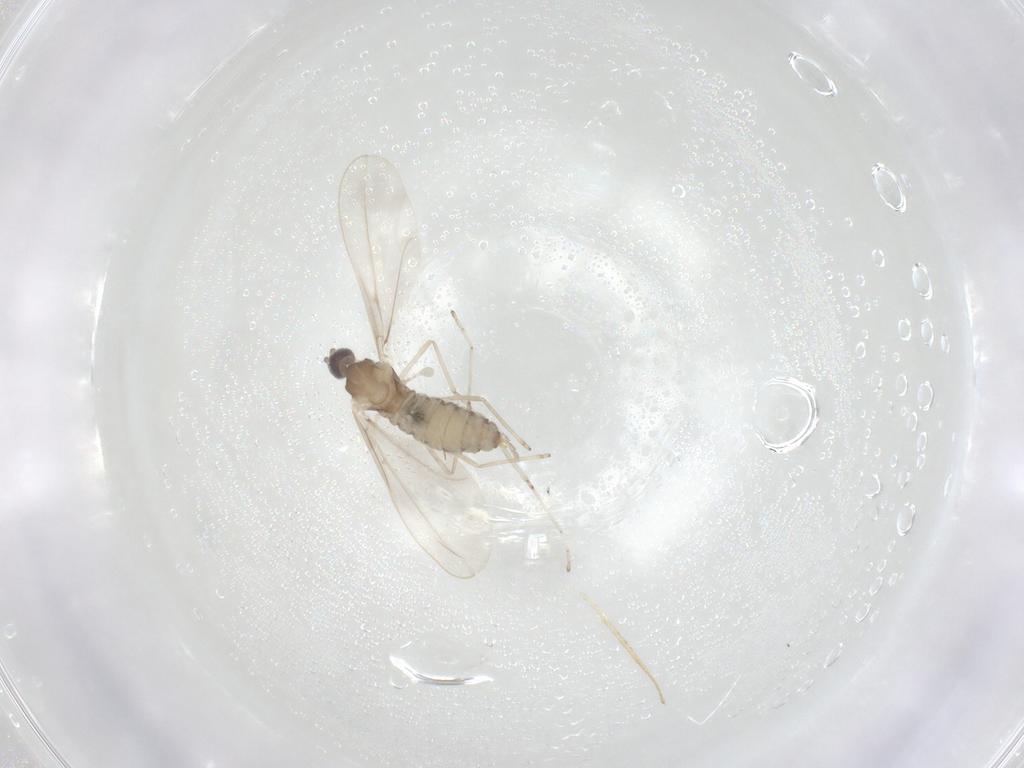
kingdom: Animalia
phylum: Arthropoda
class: Insecta
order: Diptera
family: Cecidomyiidae
